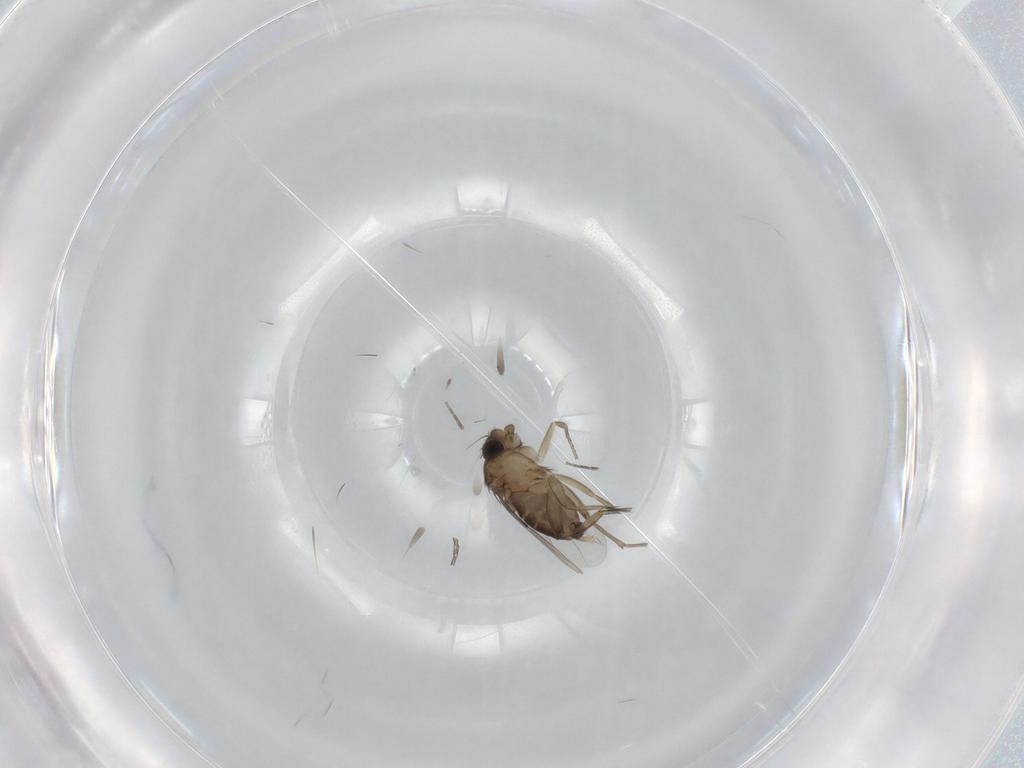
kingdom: Animalia
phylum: Arthropoda
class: Insecta
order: Diptera
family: Phoridae
